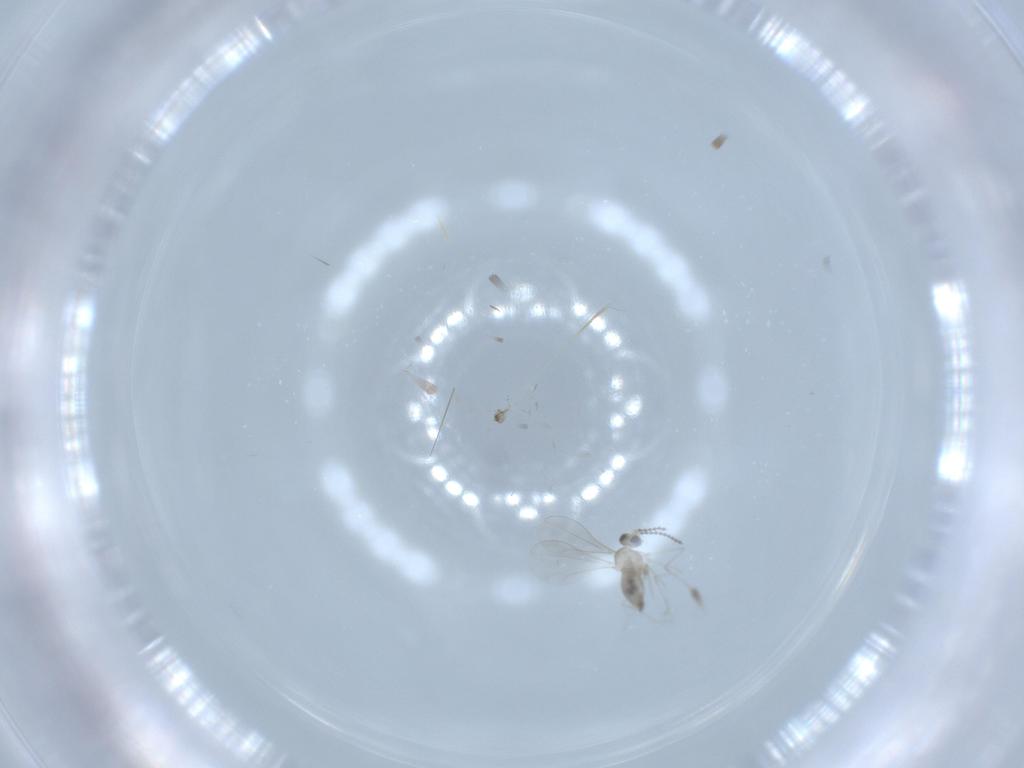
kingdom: Animalia
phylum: Arthropoda
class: Insecta
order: Diptera
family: Cecidomyiidae
